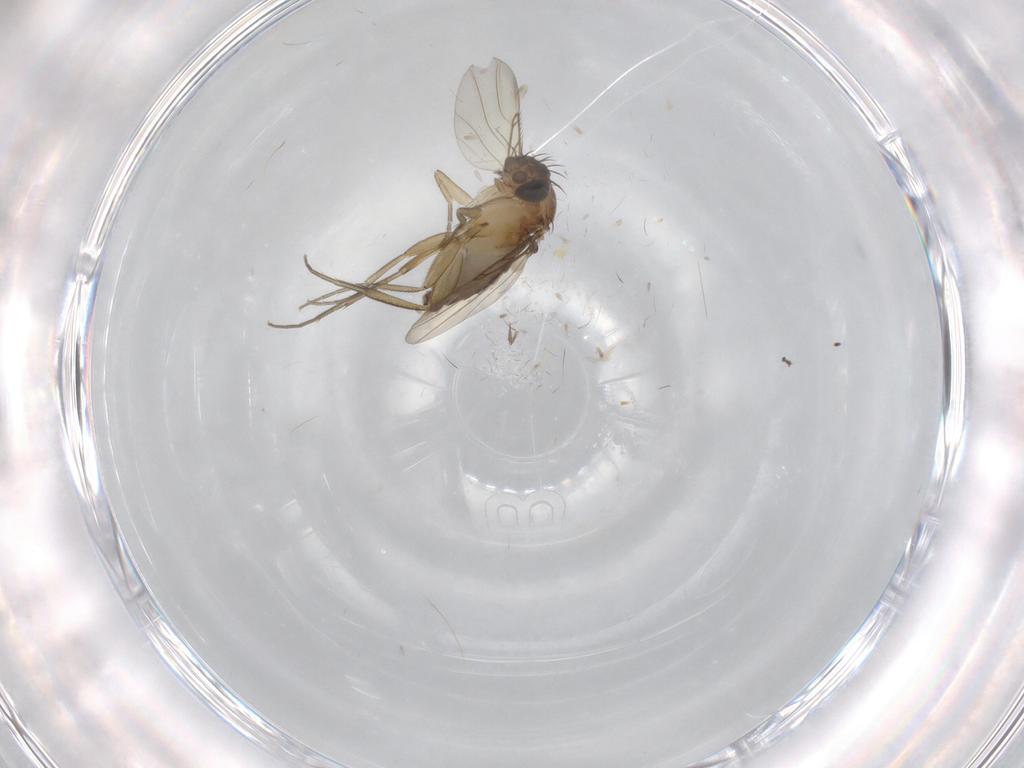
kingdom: Animalia
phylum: Arthropoda
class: Insecta
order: Diptera
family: Phoridae
